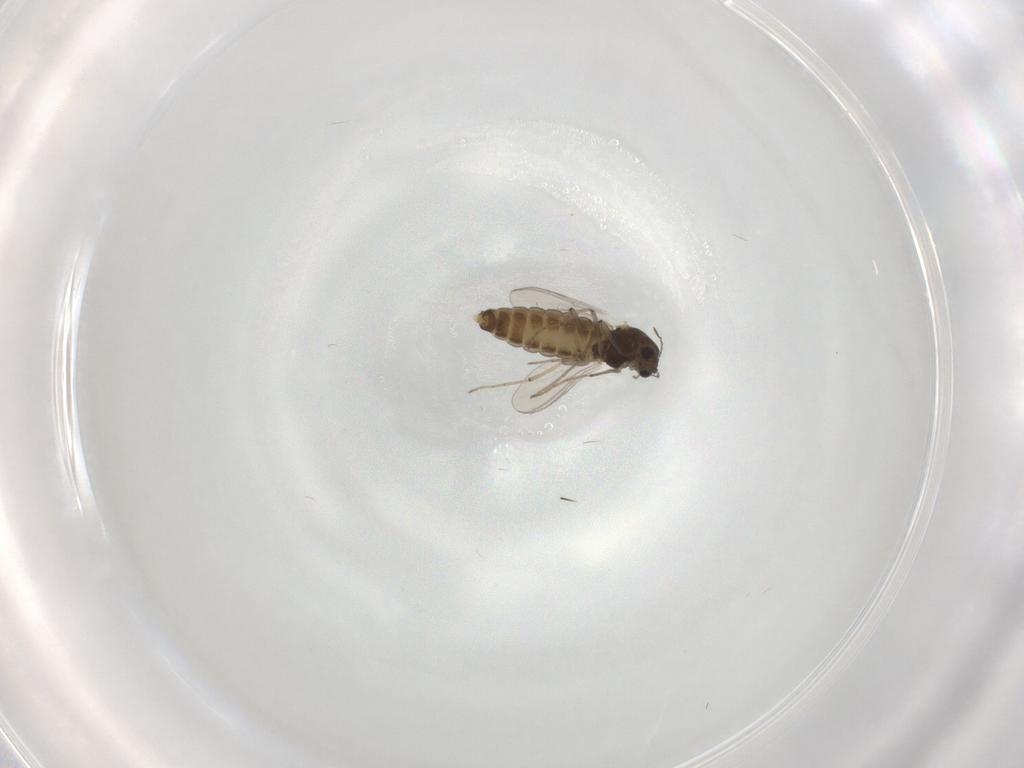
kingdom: Animalia
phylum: Arthropoda
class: Insecta
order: Diptera
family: Chironomidae
